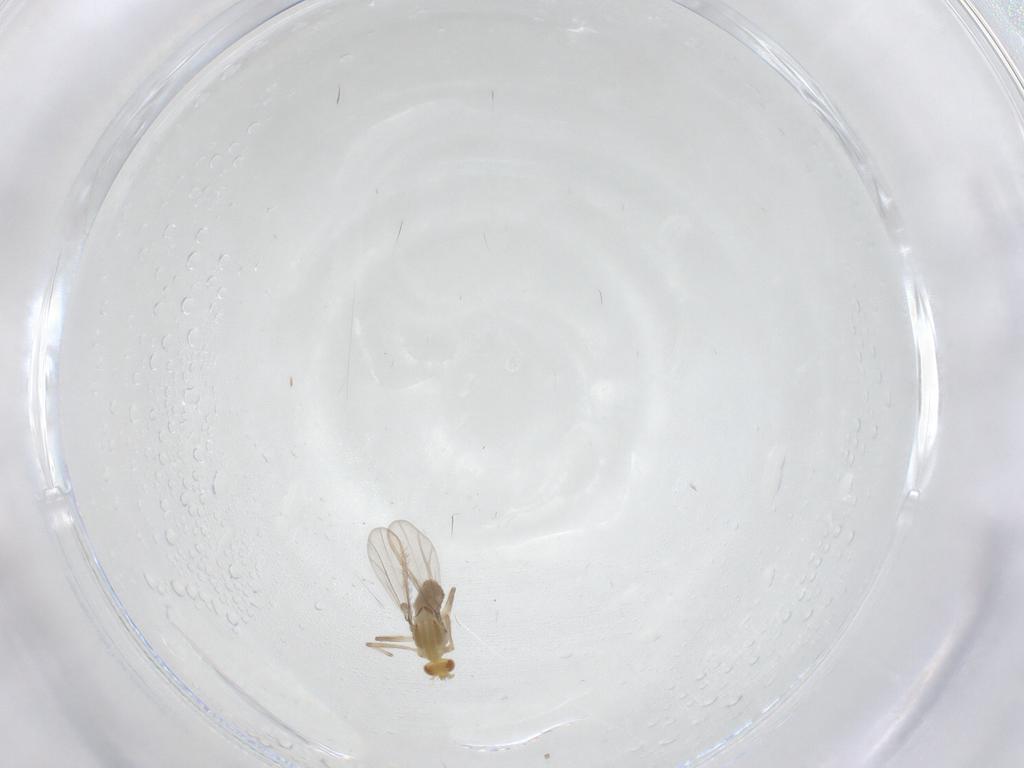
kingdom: Animalia
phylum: Arthropoda
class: Insecta
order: Diptera
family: Chironomidae
